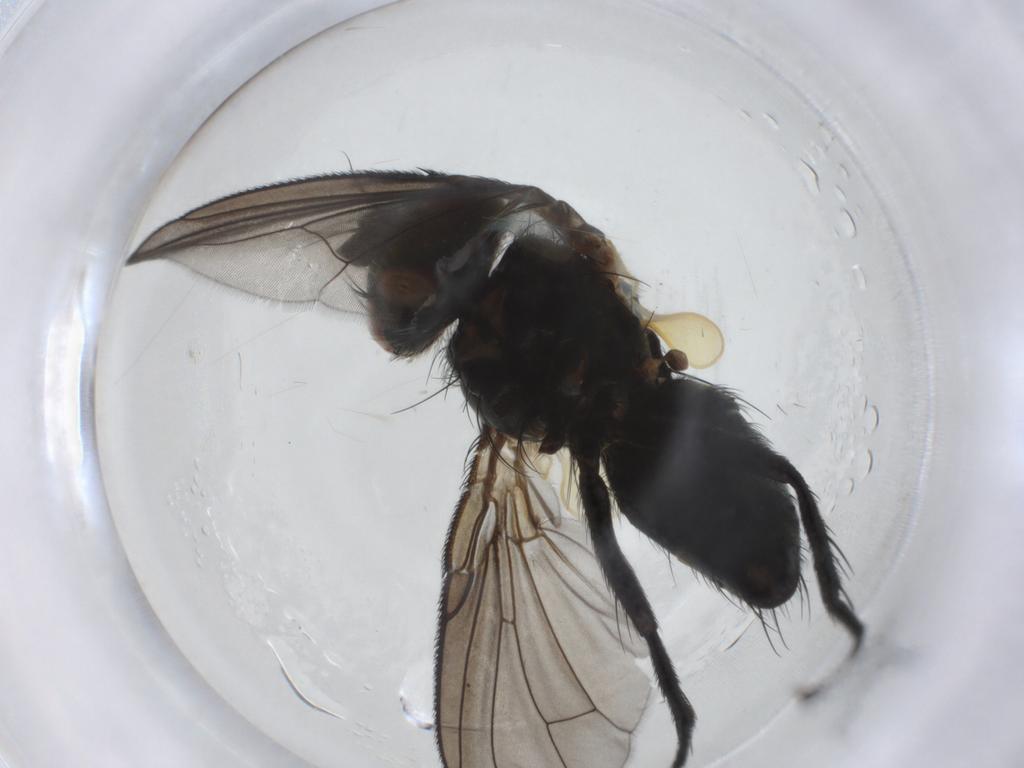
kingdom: Animalia
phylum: Arthropoda
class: Insecta
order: Diptera
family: Tachinidae
